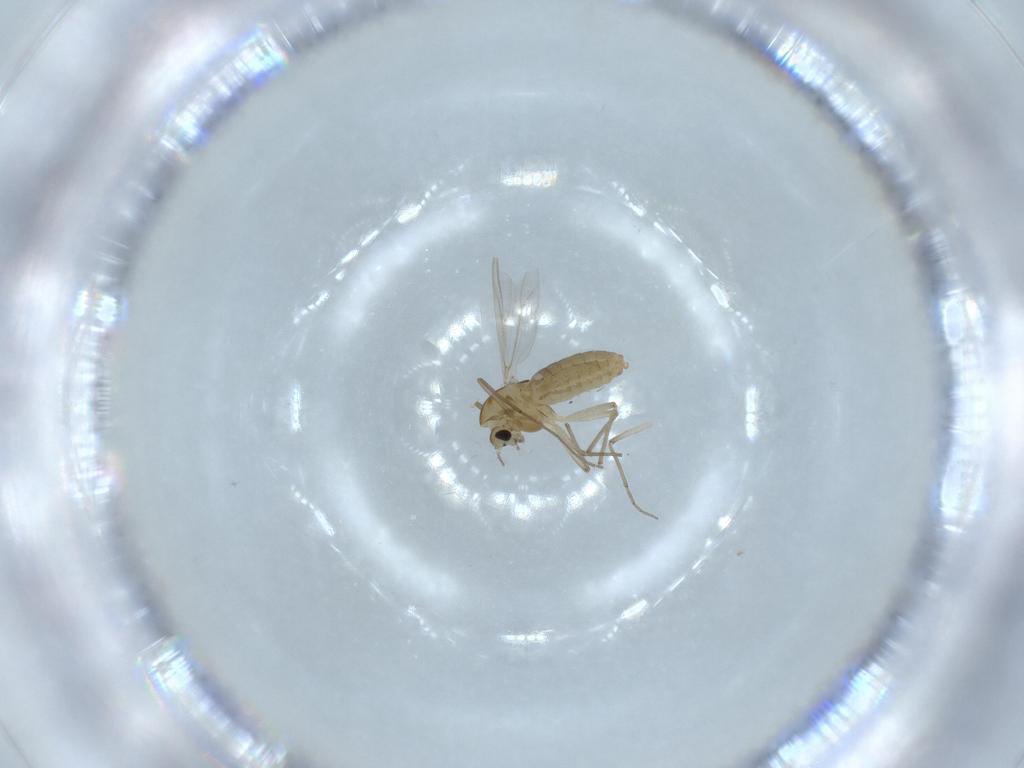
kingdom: Animalia
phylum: Arthropoda
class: Insecta
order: Diptera
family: Chironomidae
